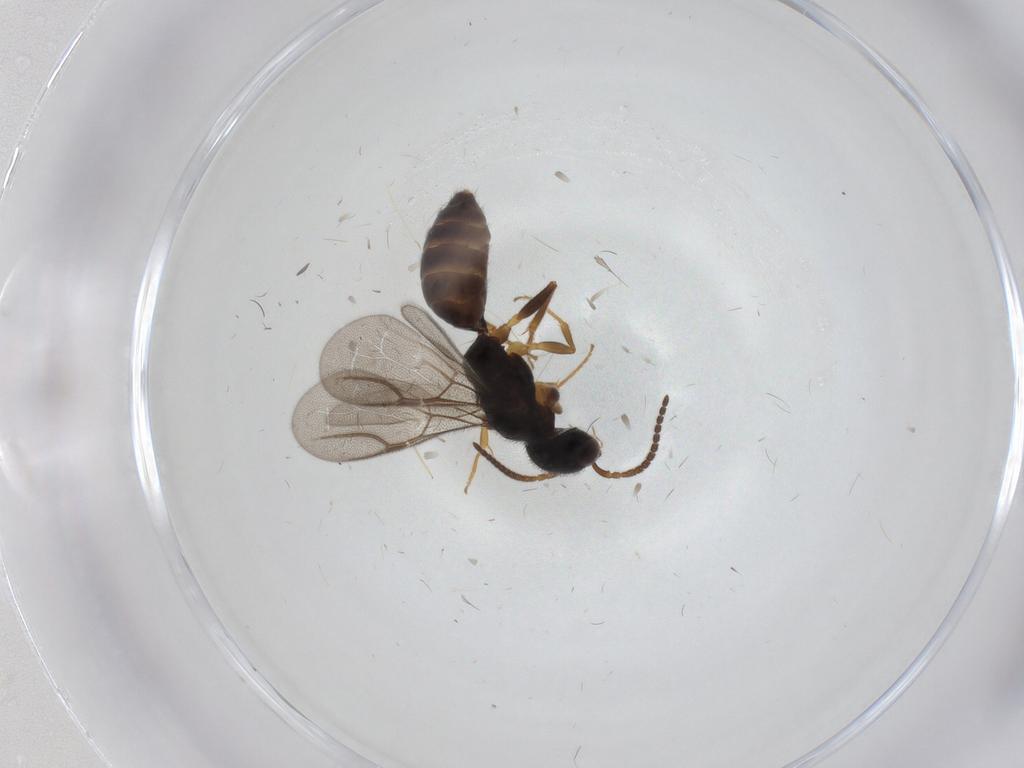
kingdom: Animalia
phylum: Arthropoda
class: Insecta
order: Hymenoptera
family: Bethylidae
